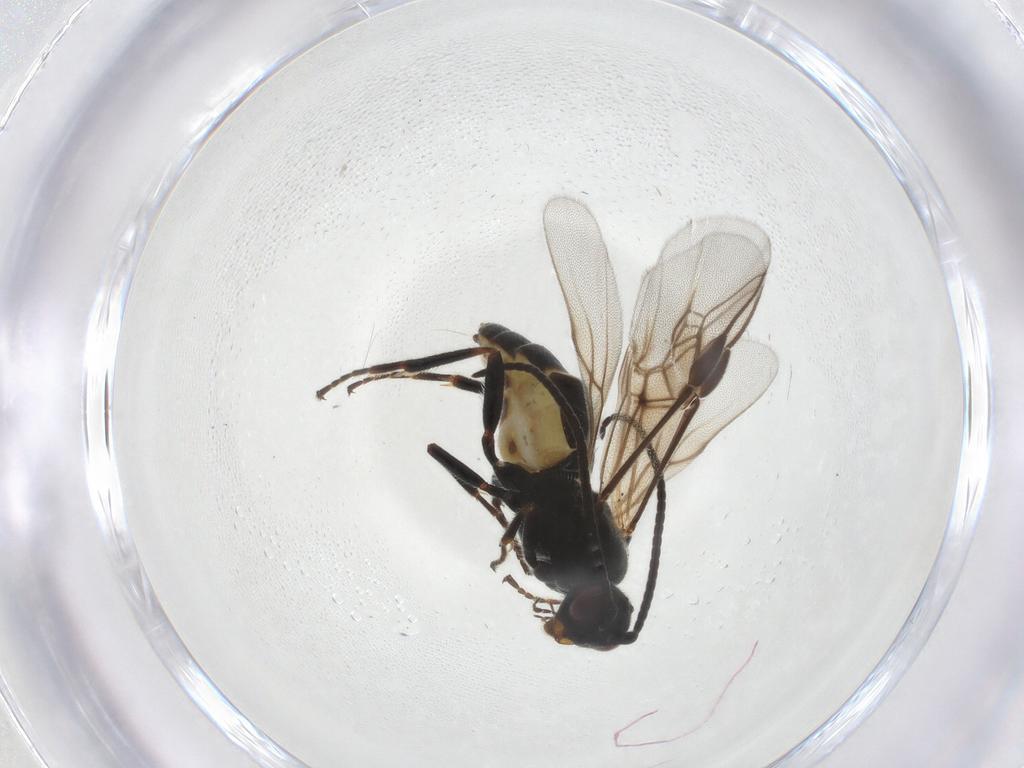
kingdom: Animalia
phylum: Arthropoda
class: Insecta
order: Hymenoptera
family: Braconidae
